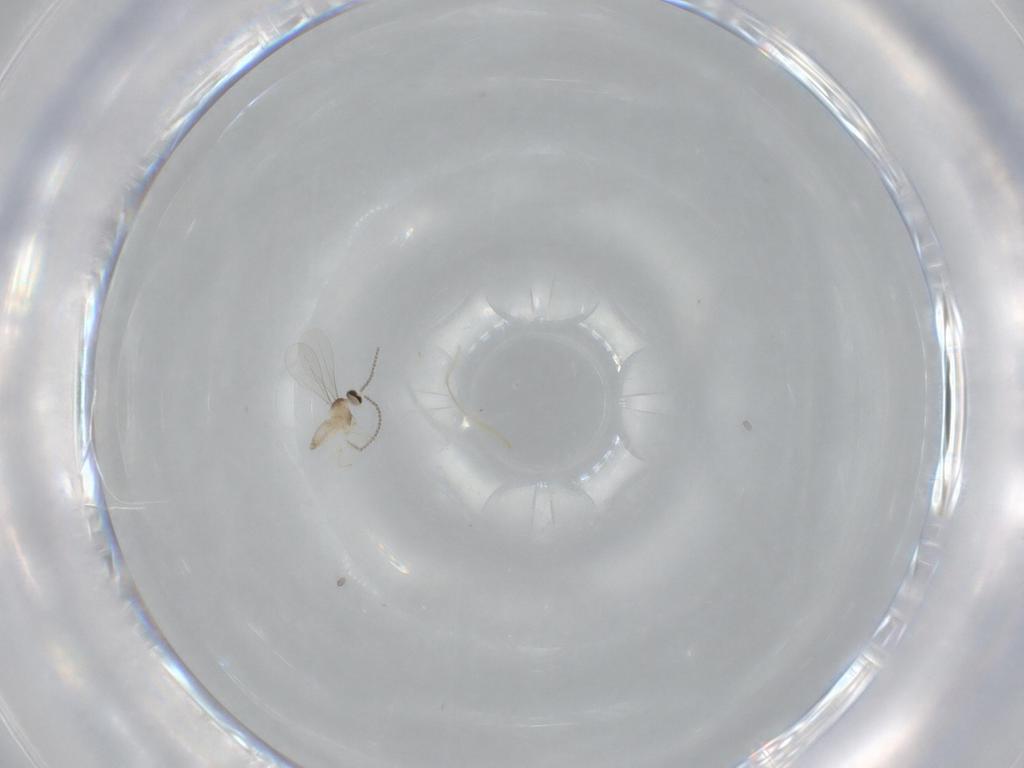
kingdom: Animalia
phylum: Arthropoda
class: Insecta
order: Diptera
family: Cecidomyiidae
